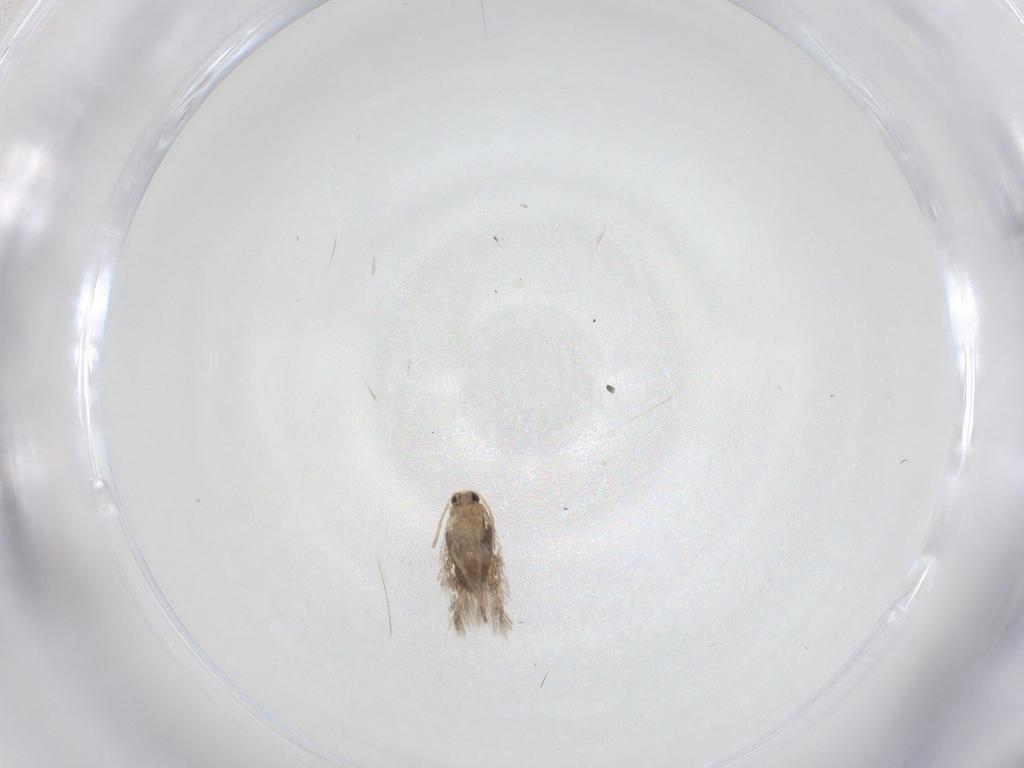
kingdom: Animalia
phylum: Arthropoda
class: Insecta
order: Lepidoptera
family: Nepticulidae
